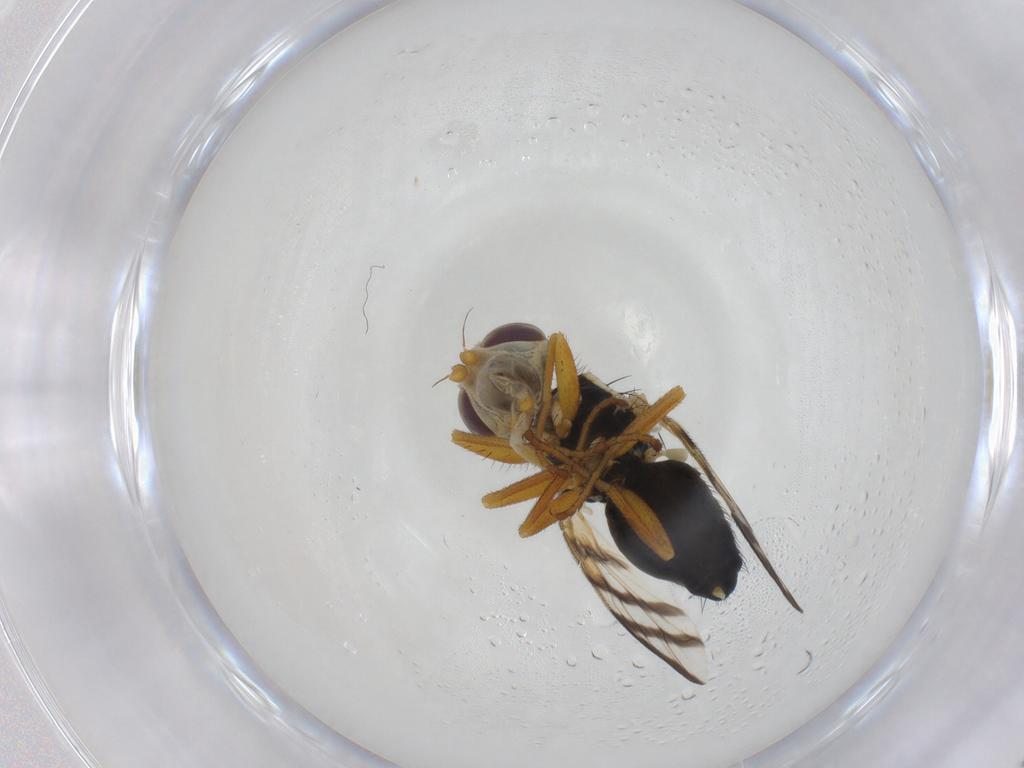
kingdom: Animalia
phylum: Arthropoda
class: Insecta
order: Diptera
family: Tephritidae
